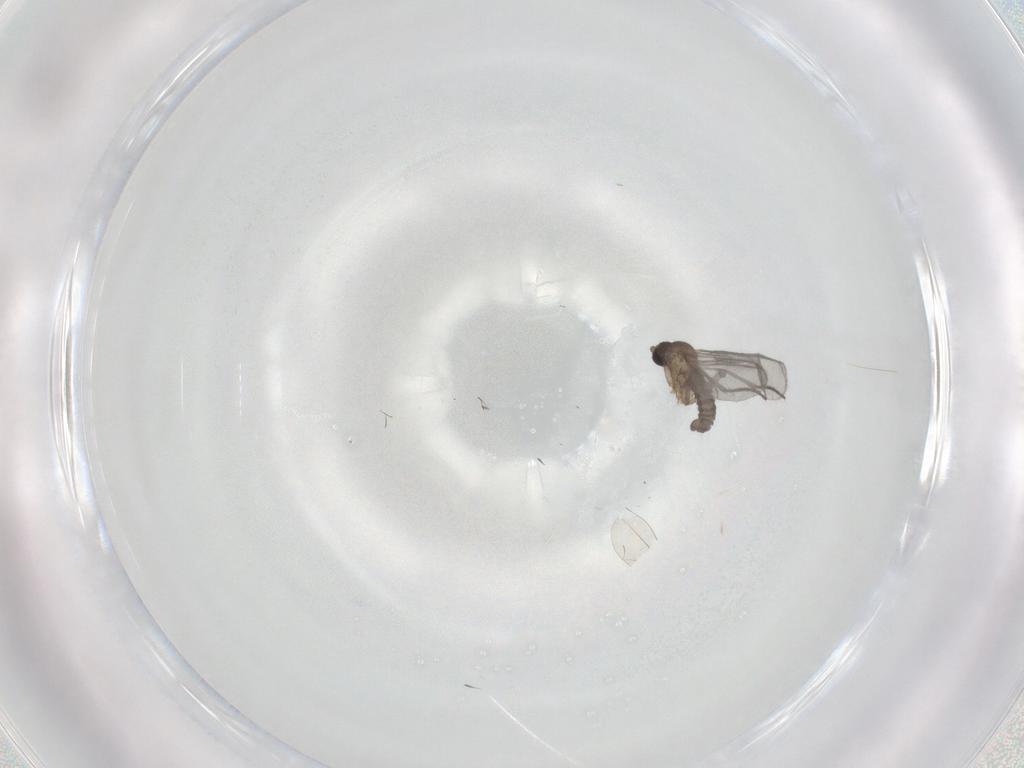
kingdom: Animalia
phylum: Arthropoda
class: Insecta
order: Diptera
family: Sciaridae
